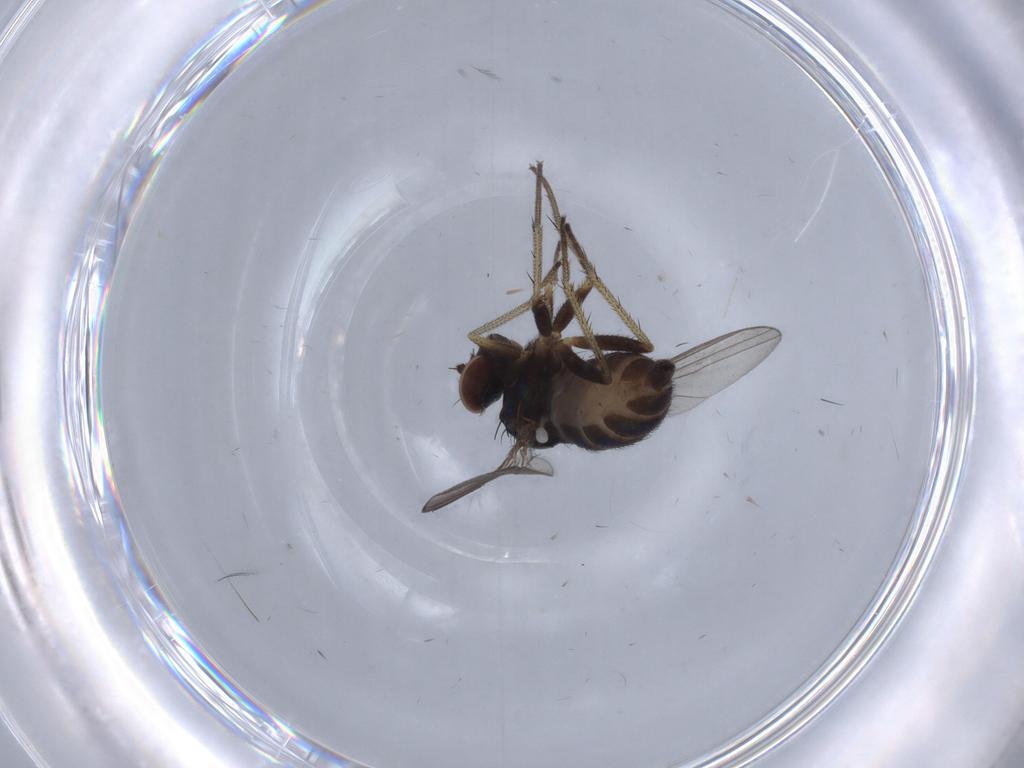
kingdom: Animalia
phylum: Arthropoda
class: Insecta
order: Diptera
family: Dolichopodidae
